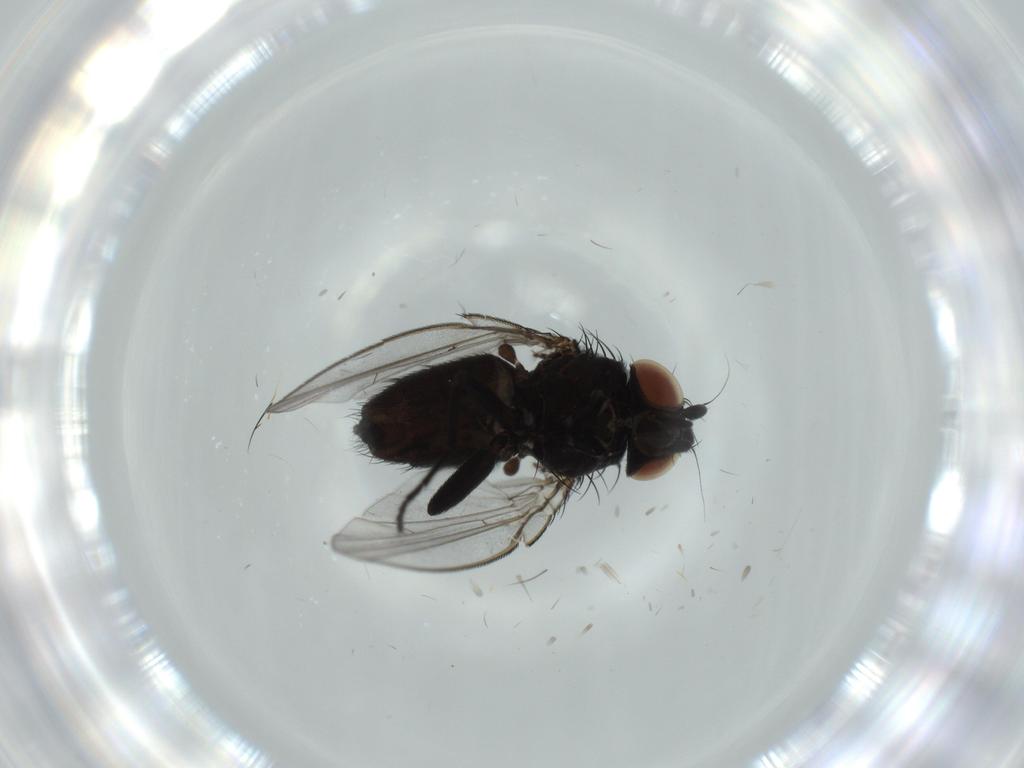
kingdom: Animalia
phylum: Arthropoda
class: Insecta
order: Diptera
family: Milichiidae
